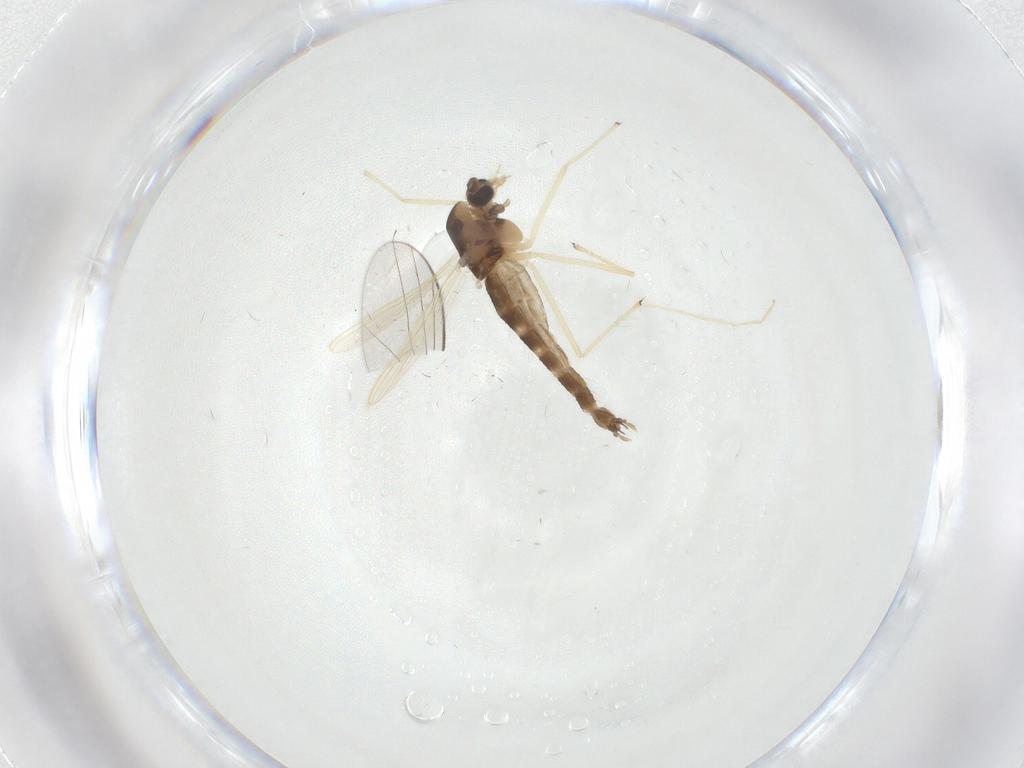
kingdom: Animalia
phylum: Arthropoda
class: Insecta
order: Diptera
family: Chironomidae
